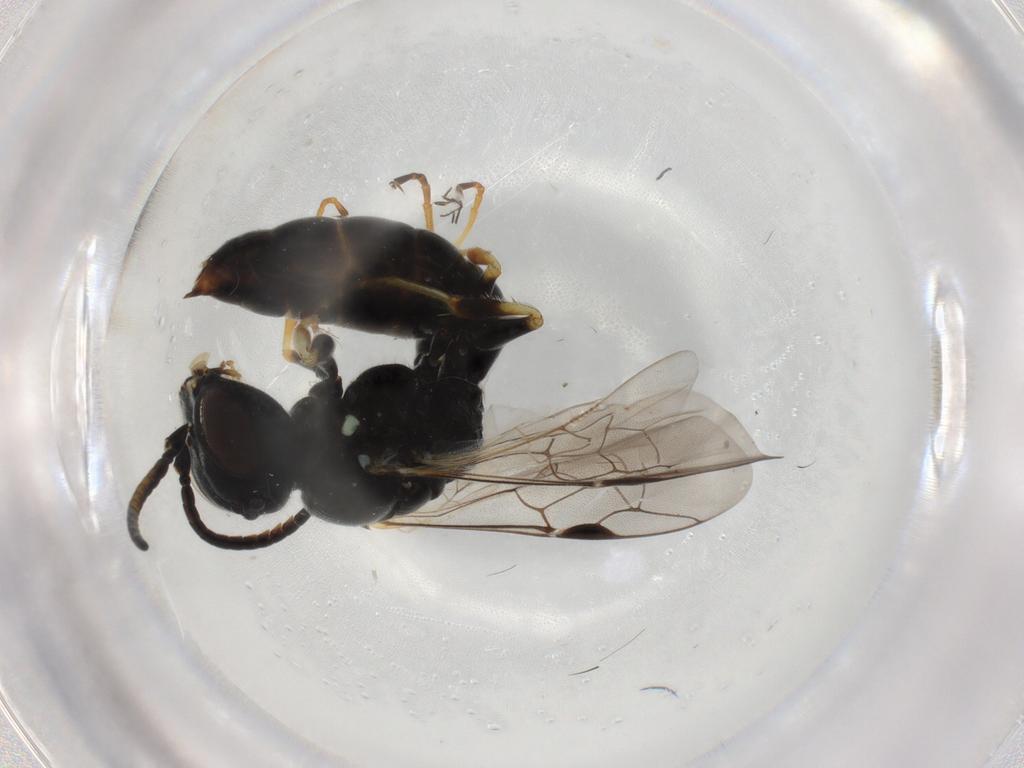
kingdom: Animalia
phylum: Arthropoda
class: Insecta
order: Hymenoptera
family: Crabronidae
